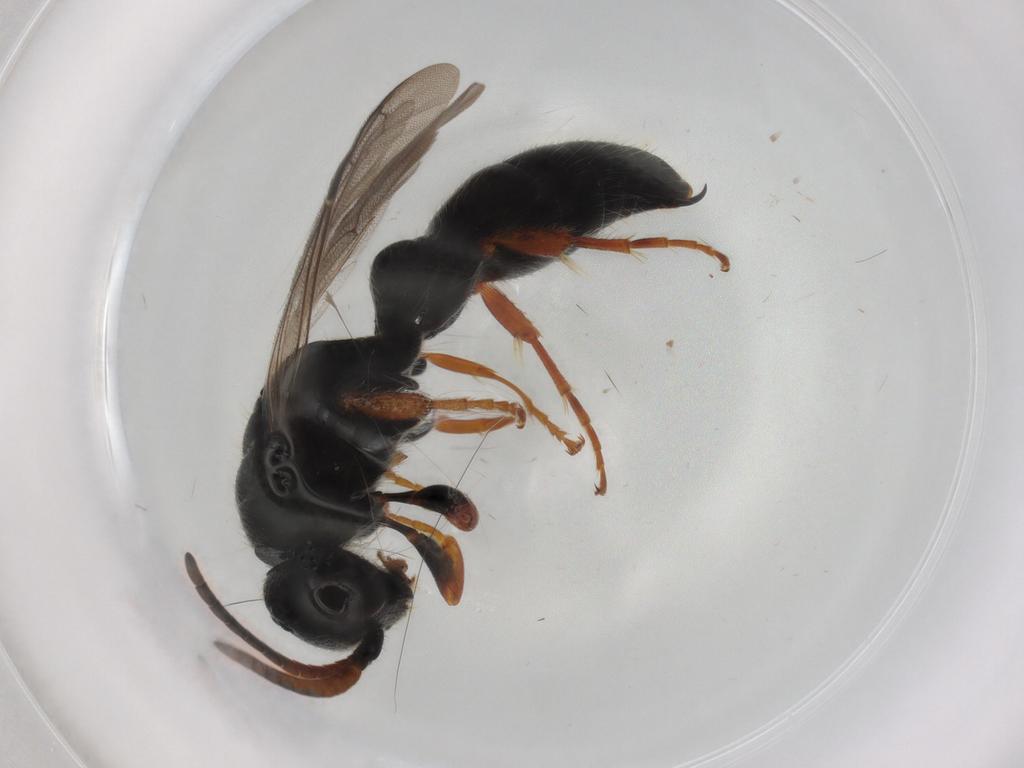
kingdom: Animalia
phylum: Arthropoda
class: Insecta
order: Hymenoptera
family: Tiphiidae
